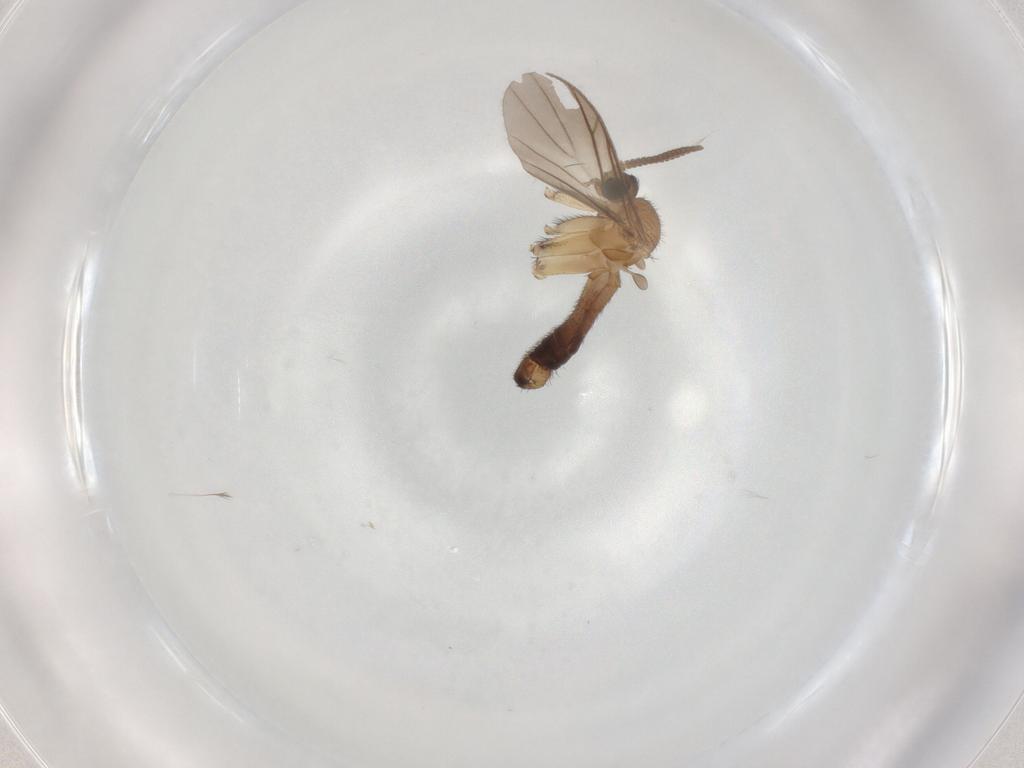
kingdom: Animalia
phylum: Arthropoda
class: Insecta
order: Diptera
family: Keroplatidae
